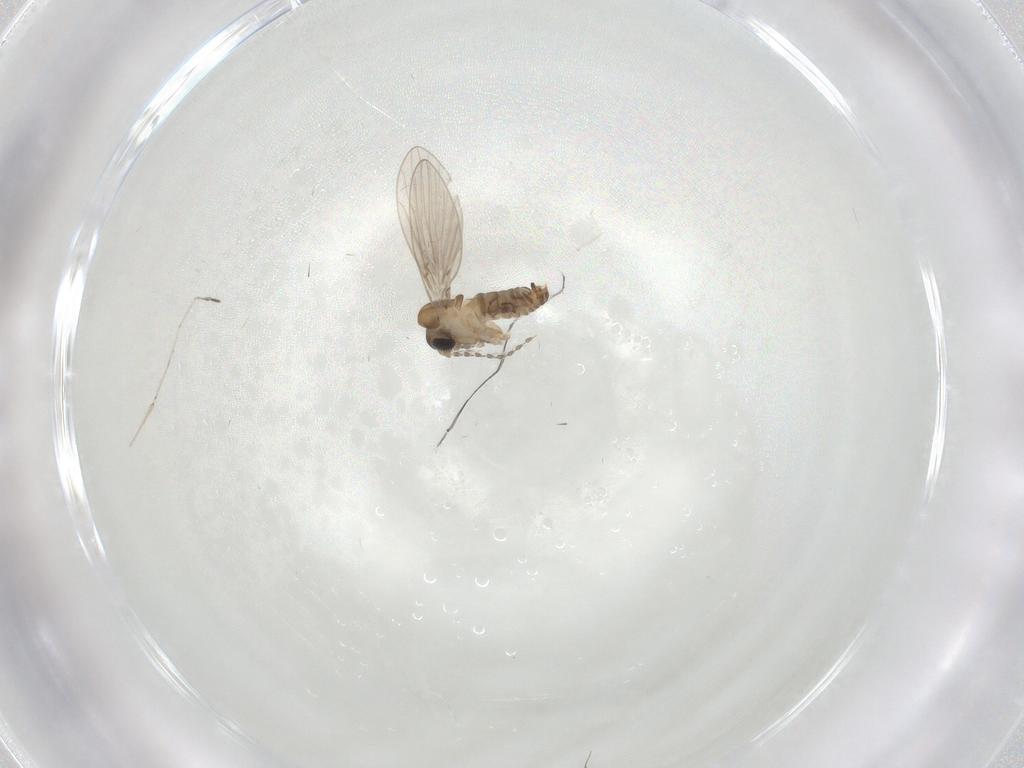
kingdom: Animalia
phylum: Arthropoda
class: Insecta
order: Diptera
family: Cecidomyiidae
